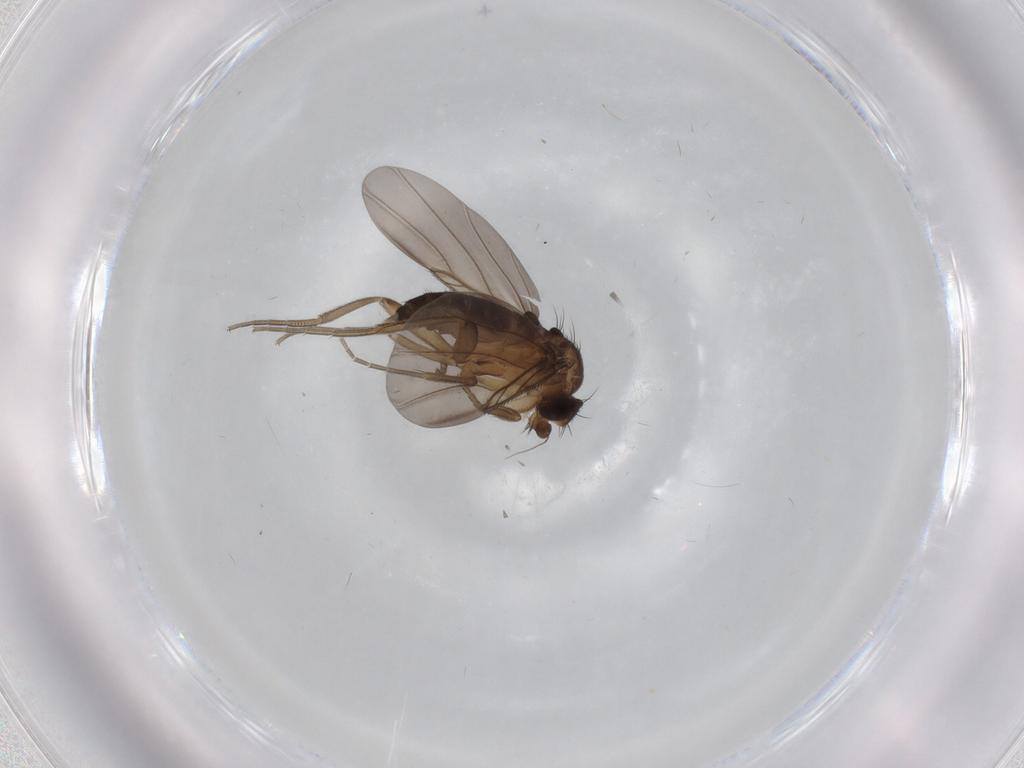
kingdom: Animalia
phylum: Arthropoda
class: Insecta
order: Diptera
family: Phoridae
